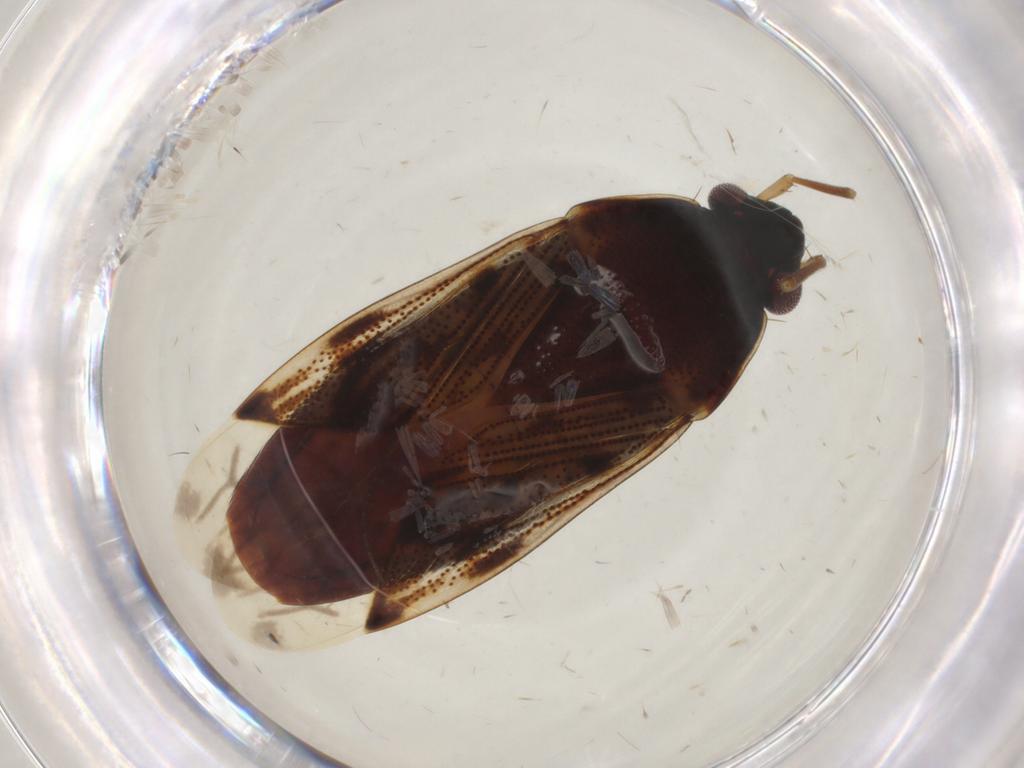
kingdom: Animalia
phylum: Arthropoda
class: Insecta
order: Hemiptera
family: Rhyparochromidae
